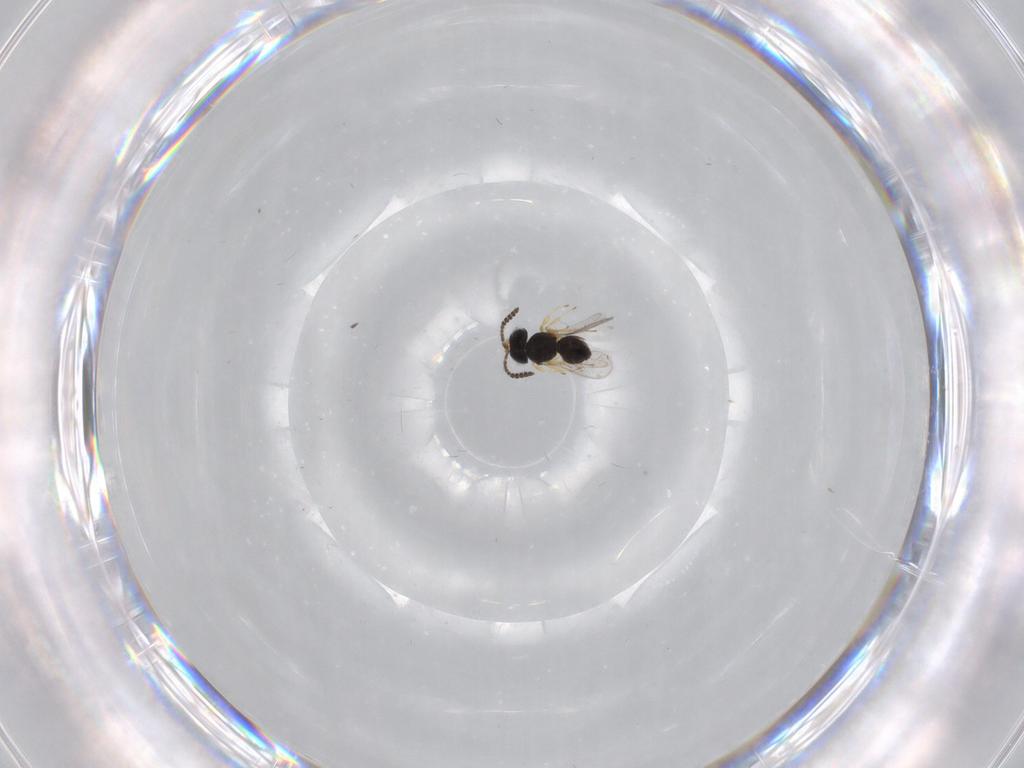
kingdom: Animalia
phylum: Arthropoda
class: Insecta
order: Hymenoptera
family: Scelionidae
